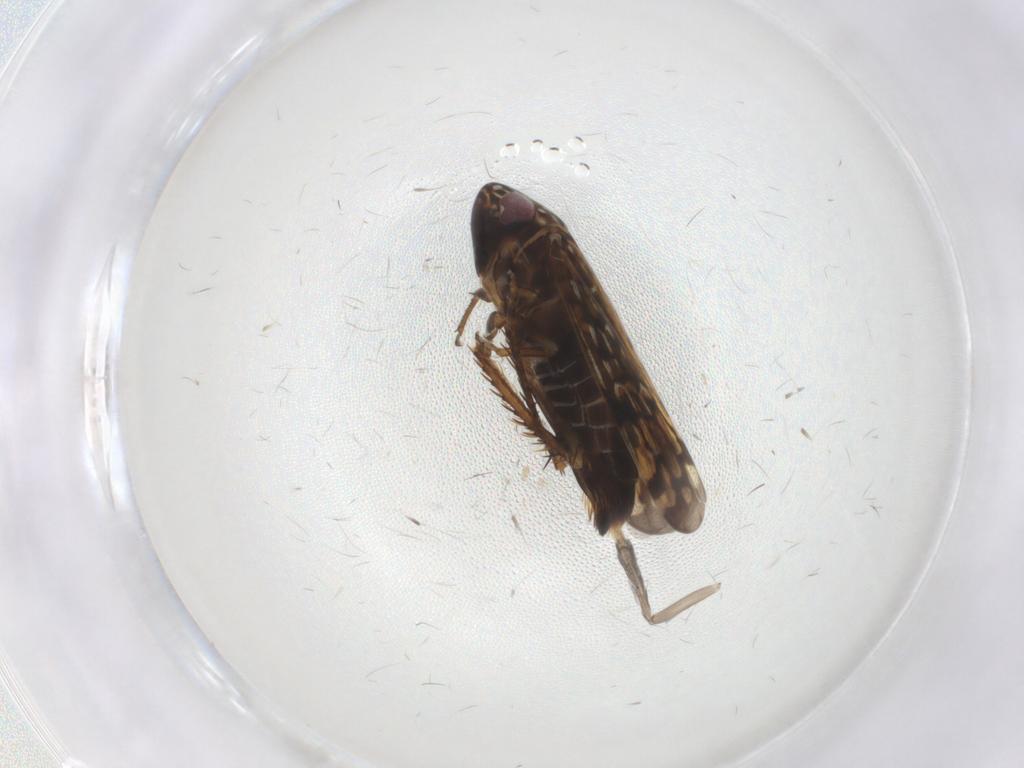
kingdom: Animalia
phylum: Arthropoda
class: Insecta
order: Hemiptera
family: Cicadellidae
